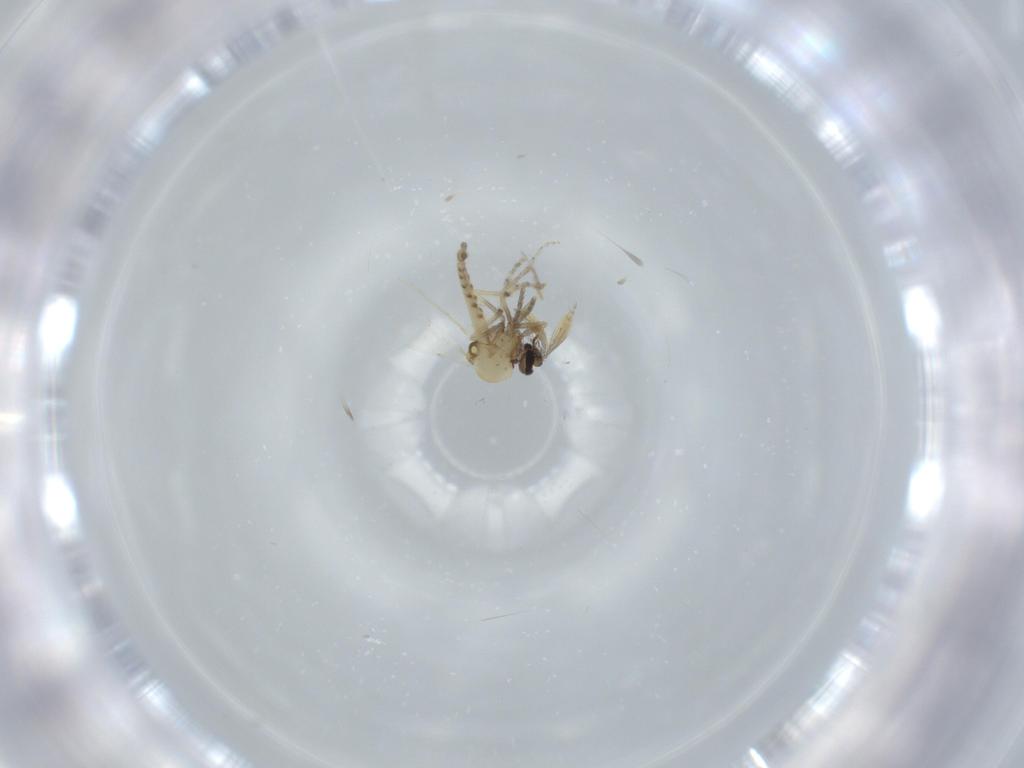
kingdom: Animalia
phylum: Arthropoda
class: Insecta
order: Diptera
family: Ceratopogonidae
